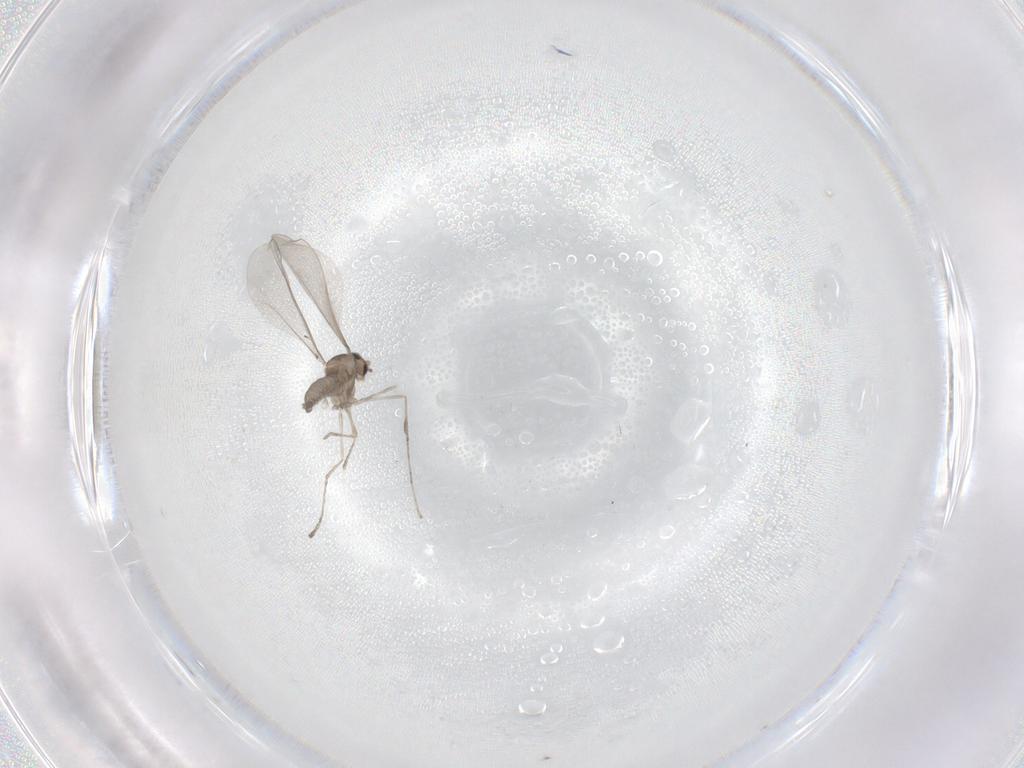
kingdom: Animalia
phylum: Arthropoda
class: Insecta
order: Diptera
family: Cecidomyiidae
